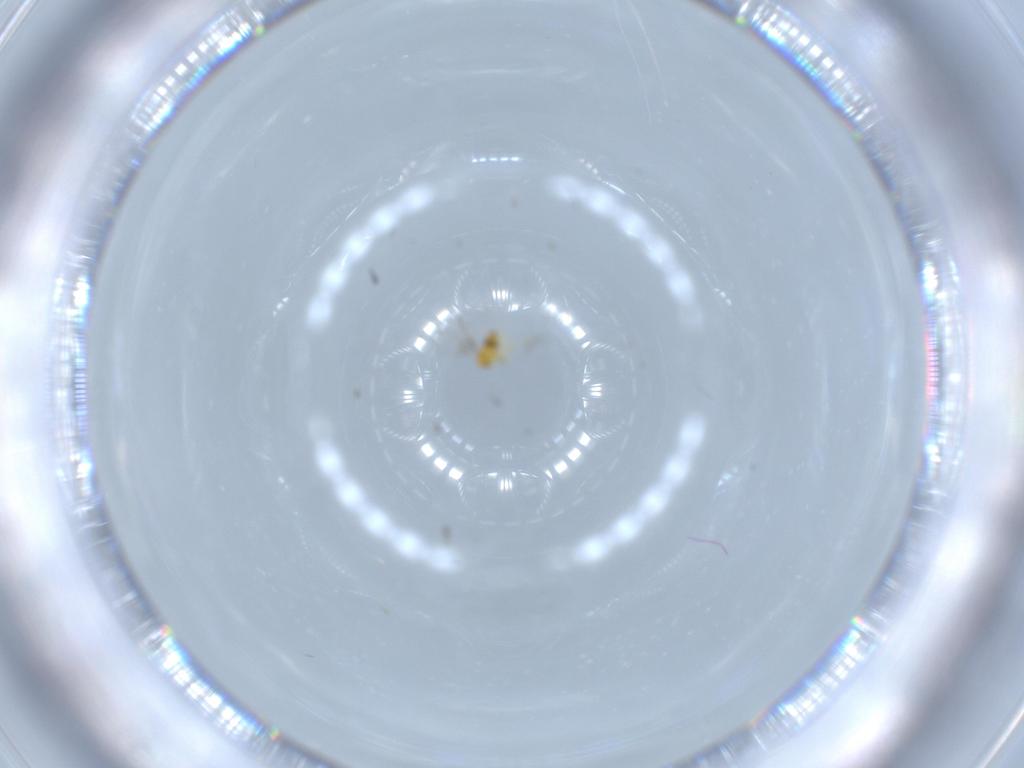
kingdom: Animalia
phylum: Arthropoda
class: Insecta
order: Hymenoptera
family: Trichogrammatidae
